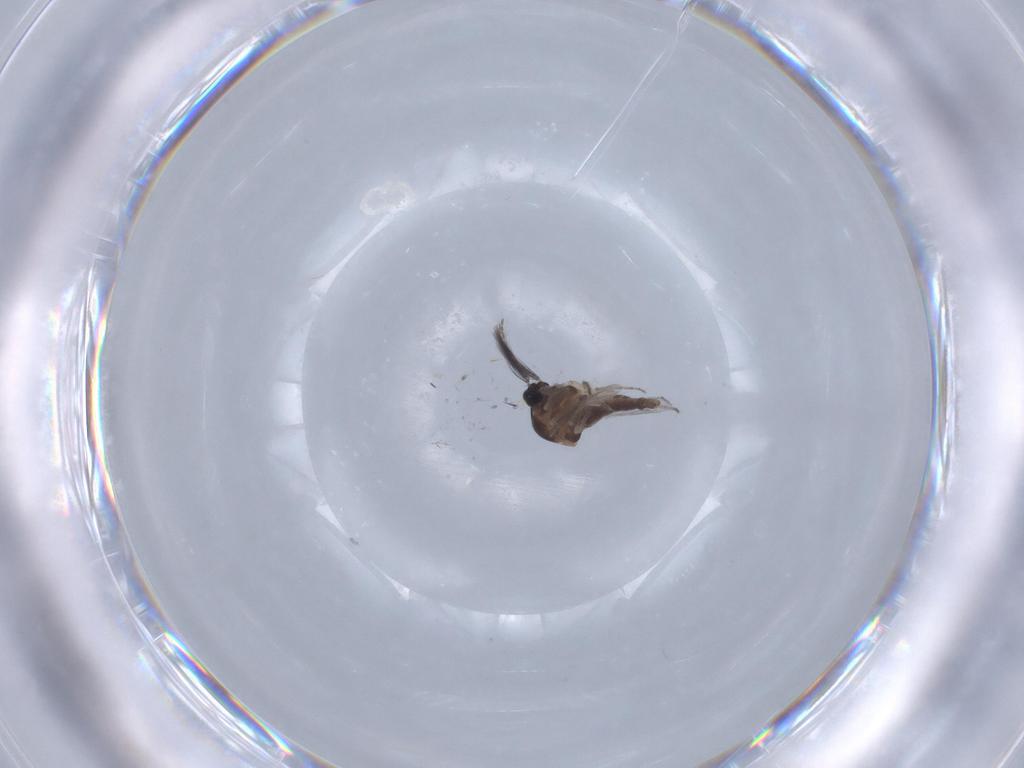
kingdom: Animalia
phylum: Arthropoda
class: Insecta
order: Diptera
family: Ceratopogonidae
